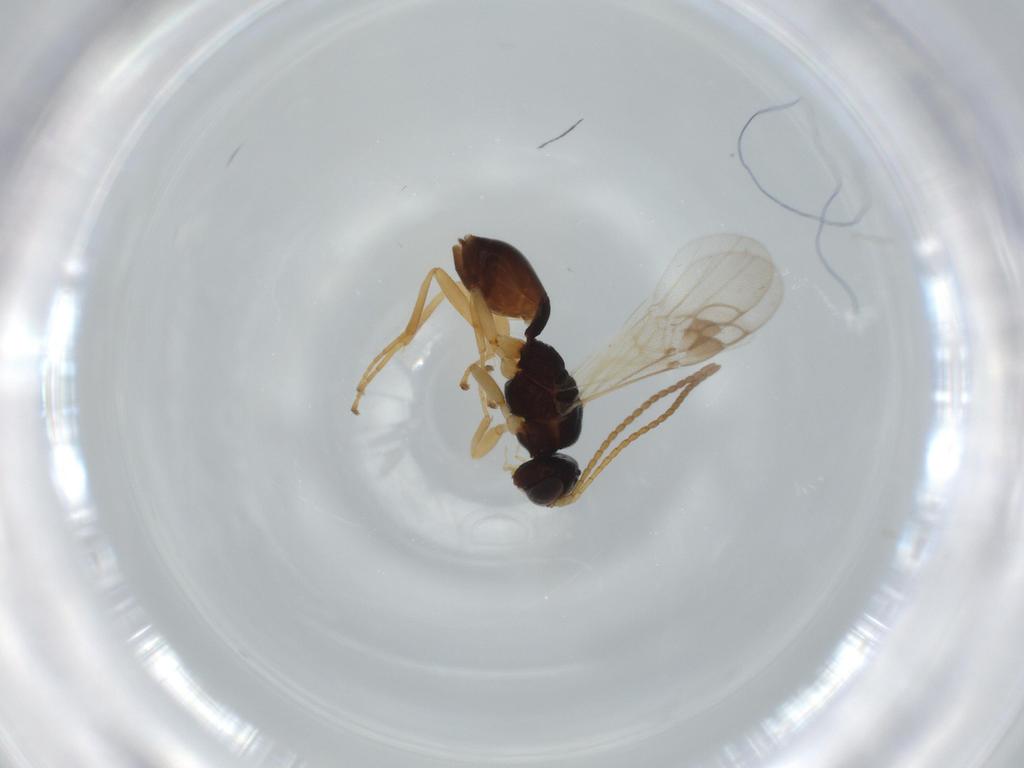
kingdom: Animalia
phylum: Arthropoda
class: Insecta
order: Hymenoptera
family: Ichneumonidae
